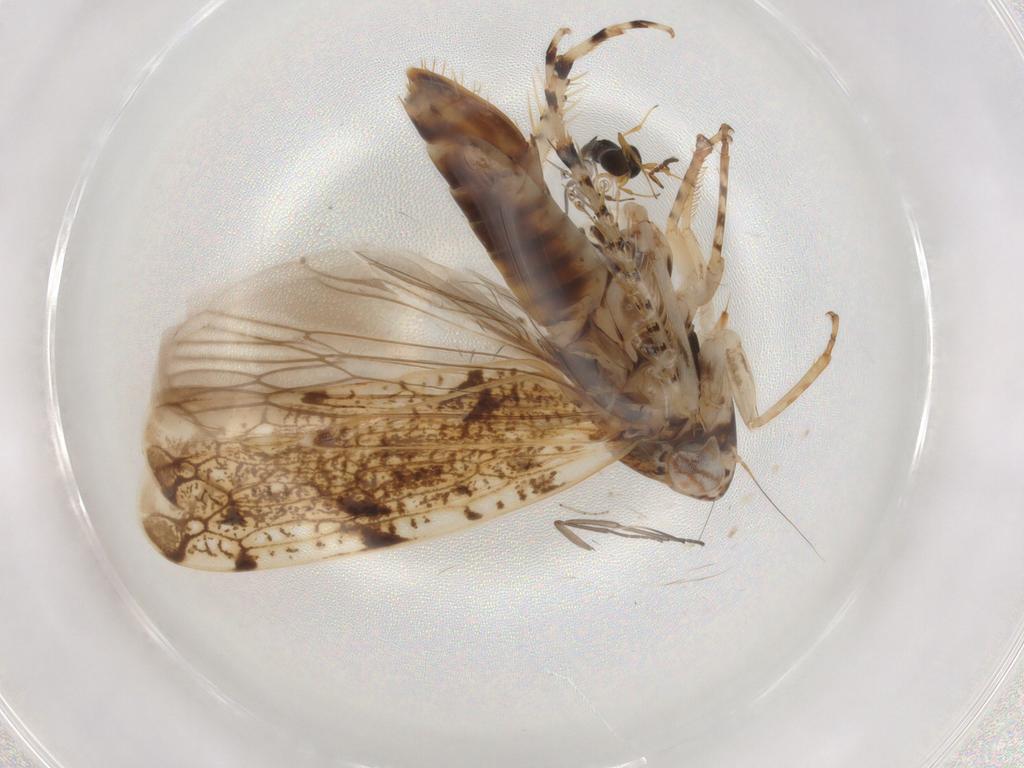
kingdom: Animalia
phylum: Arthropoda
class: Insecta
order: Hymenoptera
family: Platygastridae
